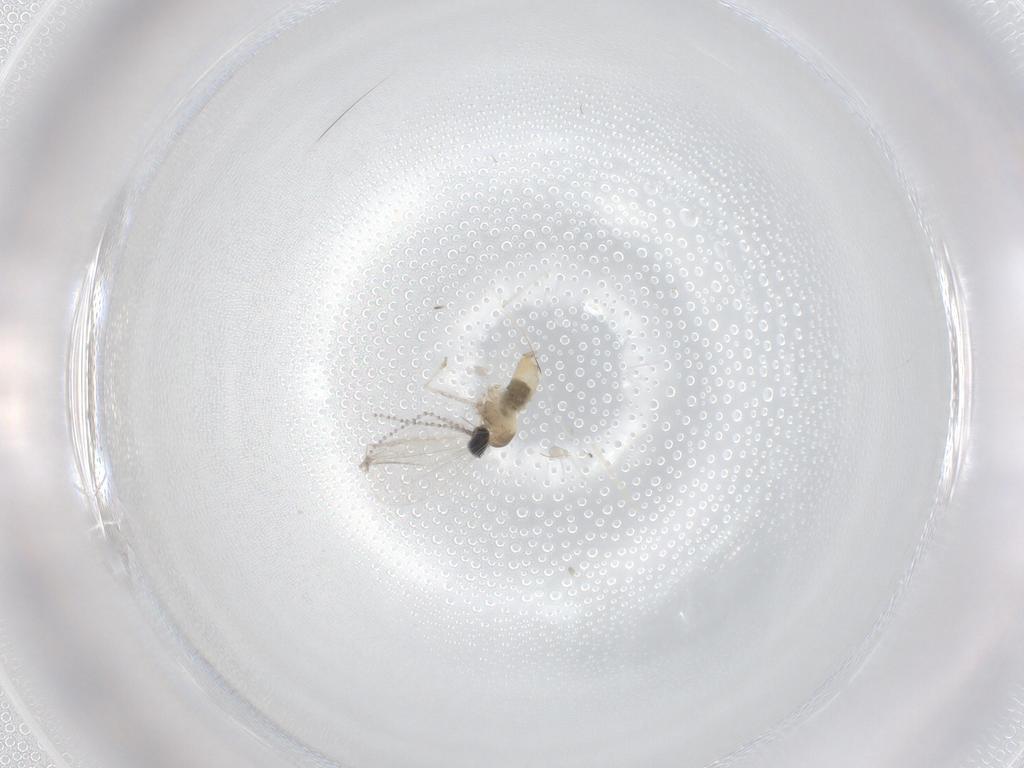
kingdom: Animalia
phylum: Arthropoda
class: Insecta
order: Diptera
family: Cecidomyiidae
